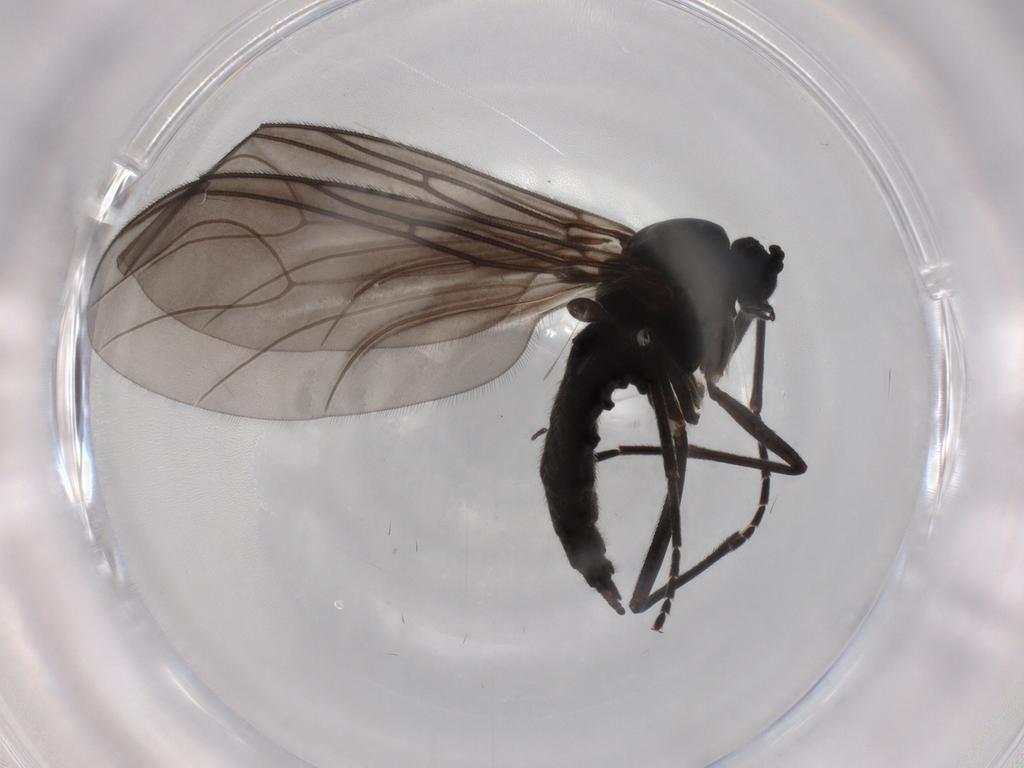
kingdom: Animalia
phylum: Arthropoda
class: Insecta
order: Diptera
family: Sciaridae
